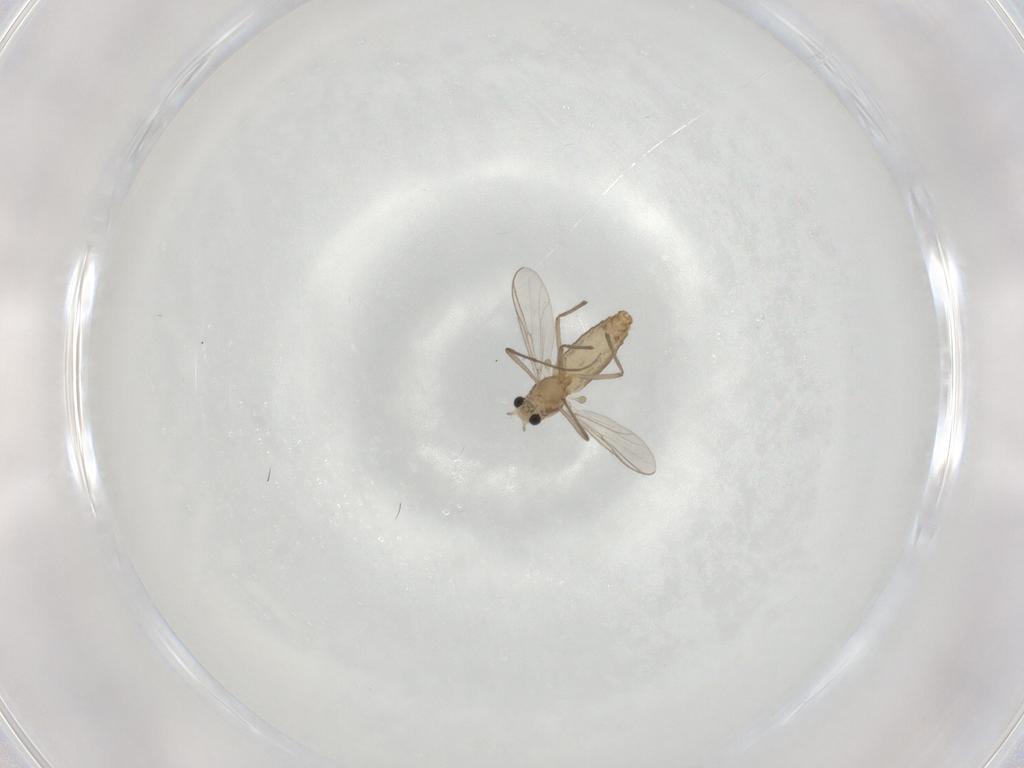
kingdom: Animalia
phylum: Arthropoda
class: Insecta
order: Diptera
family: Chironomidae
